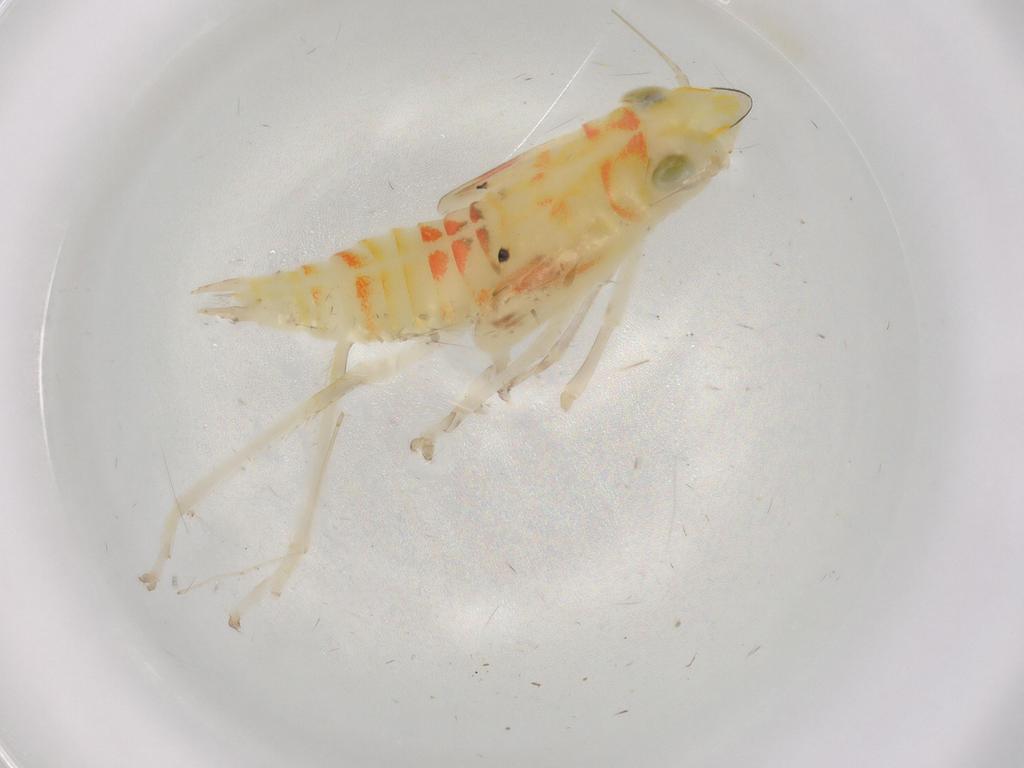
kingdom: Animalia
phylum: Arthropoda
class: Insecta
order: Hemiptera
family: Cicadellidae
